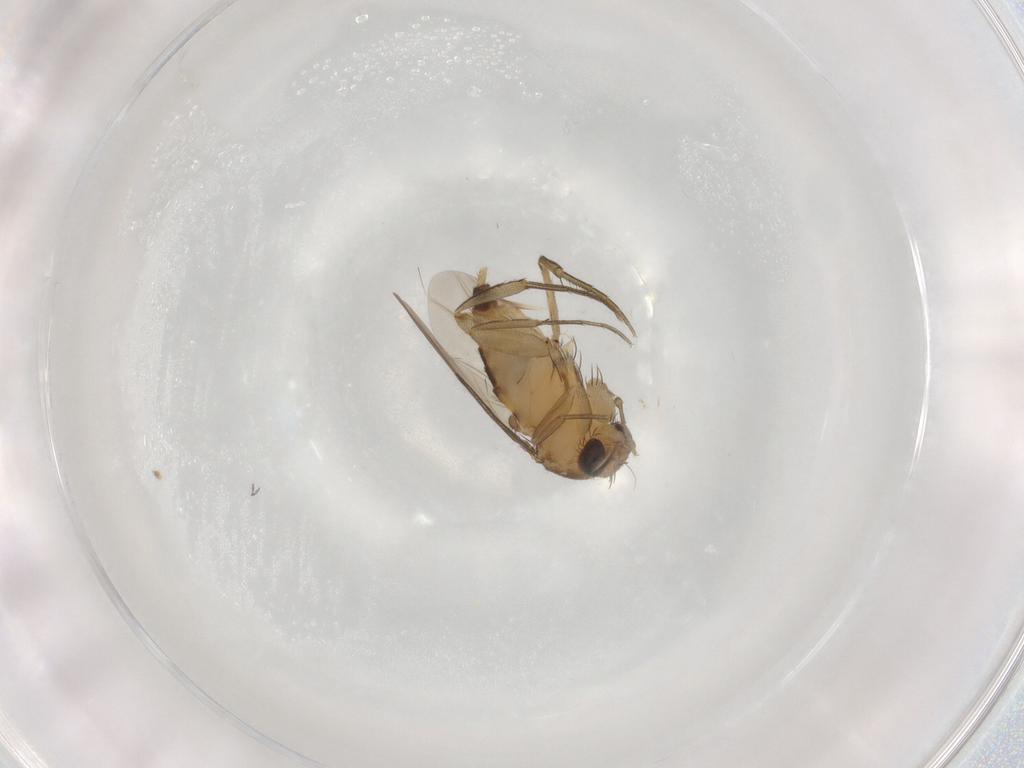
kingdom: Animalia
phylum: Arthropoda
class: Insecta
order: Diptera
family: Phoridae
